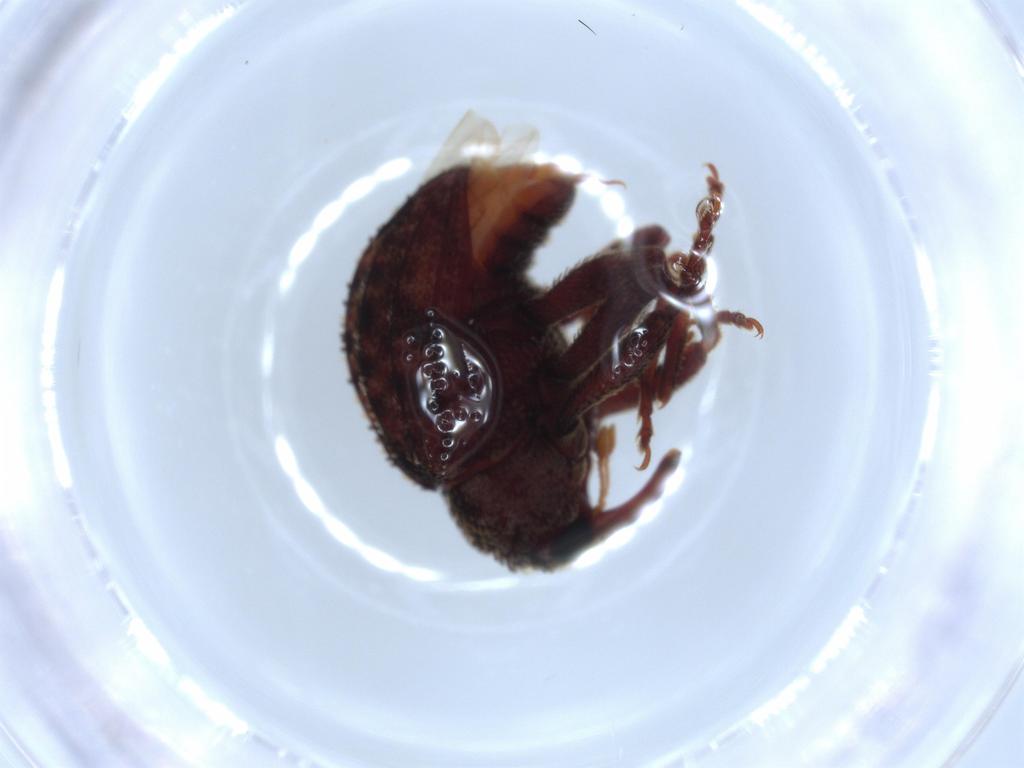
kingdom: Animalia
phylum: Arthropoda
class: Insecta
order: Coleoptera
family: Curculionidae
